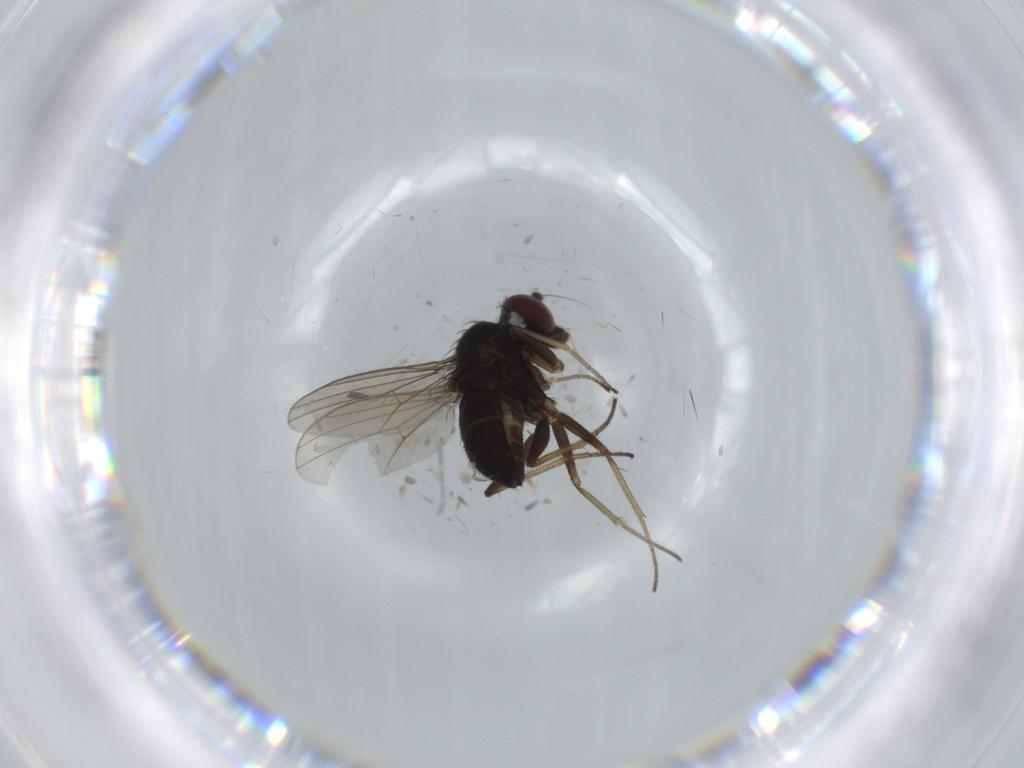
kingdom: Animalia
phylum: Arthropoda
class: Insecta
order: Diptera
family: Dolichopodidae
